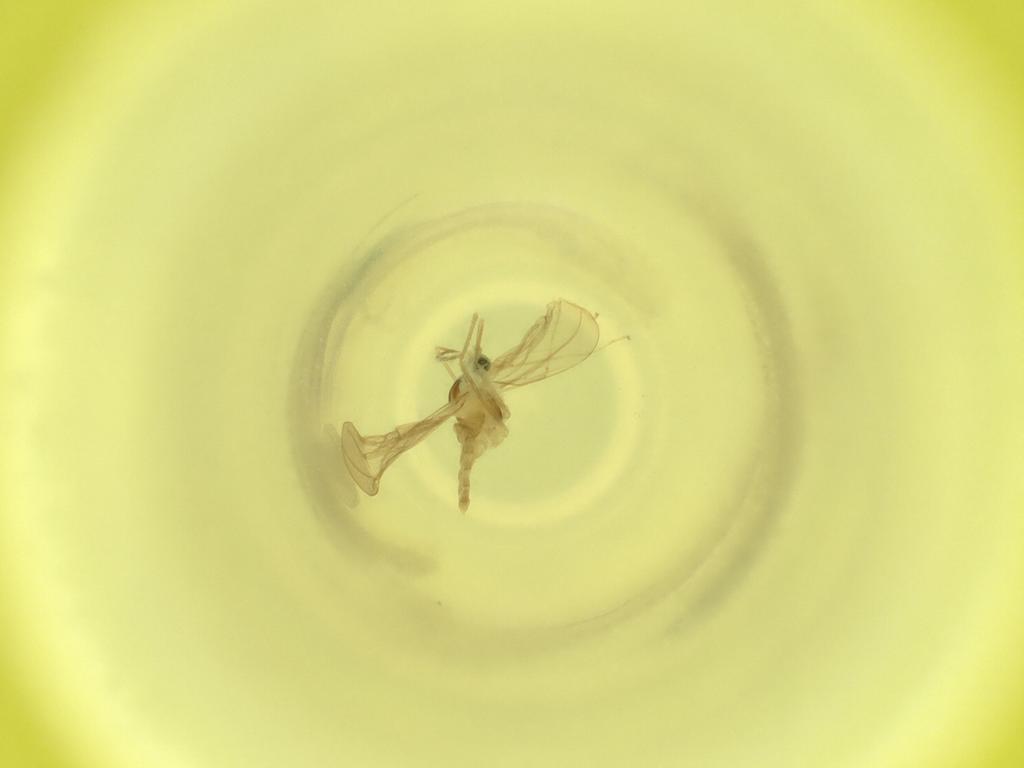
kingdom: Animalia
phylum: Arthropoda
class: Insecta
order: Diptera
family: Cecidomyiidae
